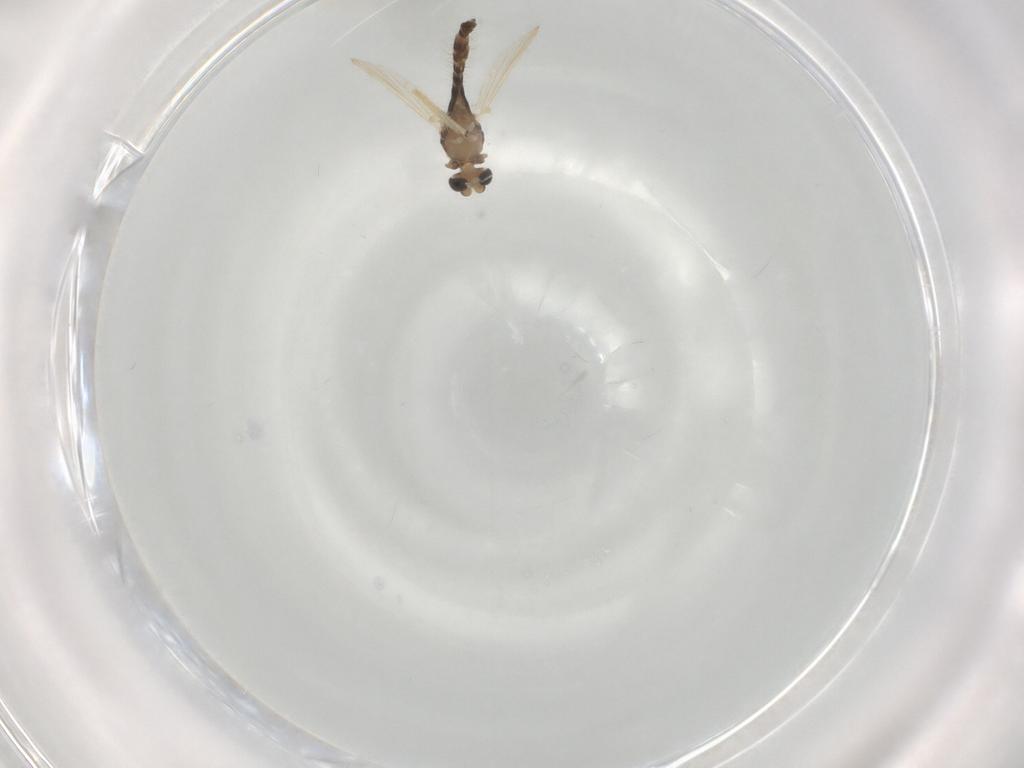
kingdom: Animalia
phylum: Arthropoda
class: Insecta
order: Diptera
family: Chironomidae
